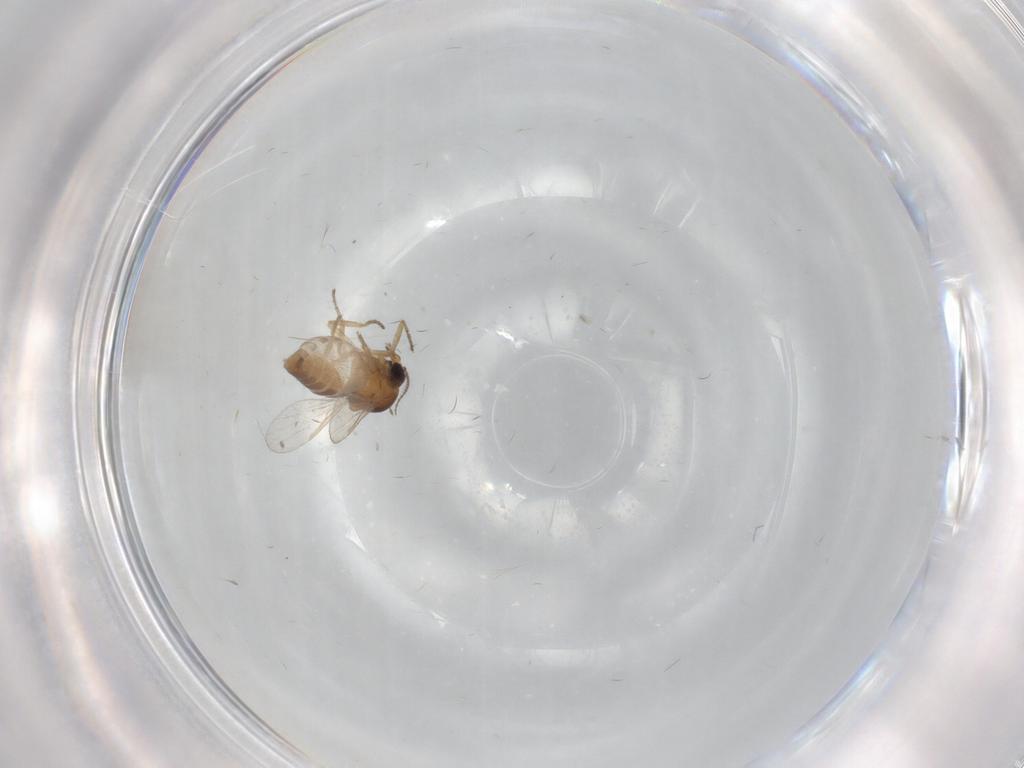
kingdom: Animalia
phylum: Arthropoda
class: Insecta
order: Diptera
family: Ceratopogonidae
